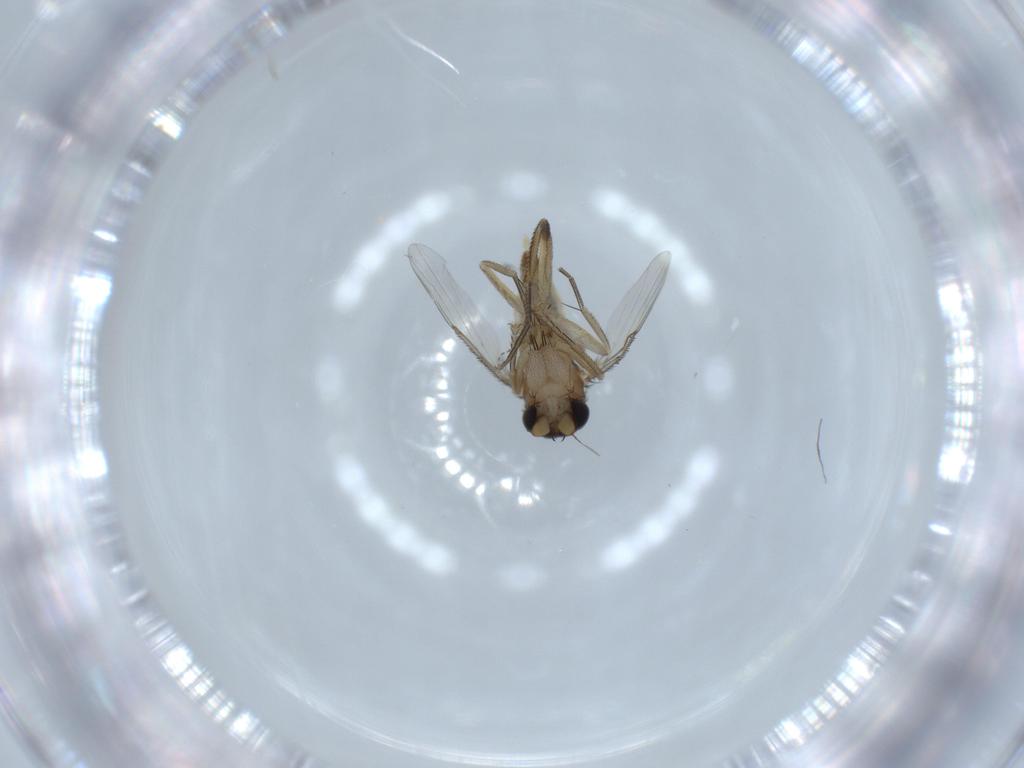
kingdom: Animalia
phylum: Arthropoda
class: Insecta
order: Diptera
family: Phoridae
